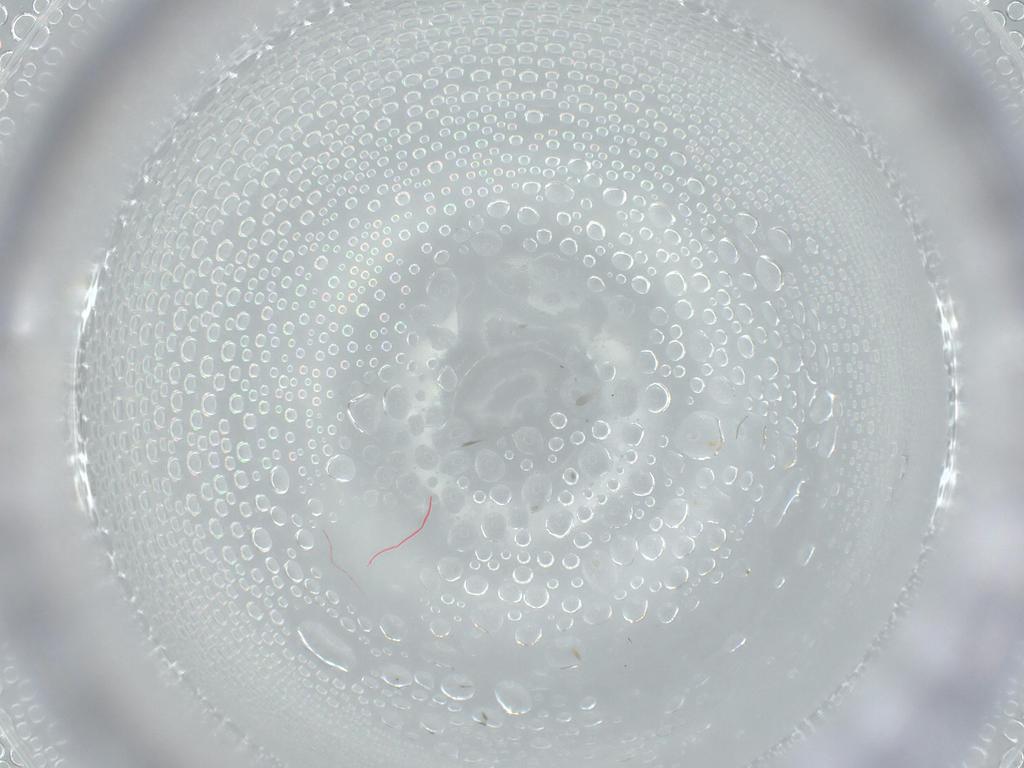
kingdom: Animalia
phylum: Arthropoda
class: Insecta
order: Hemiptera
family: Aleyrodidae
